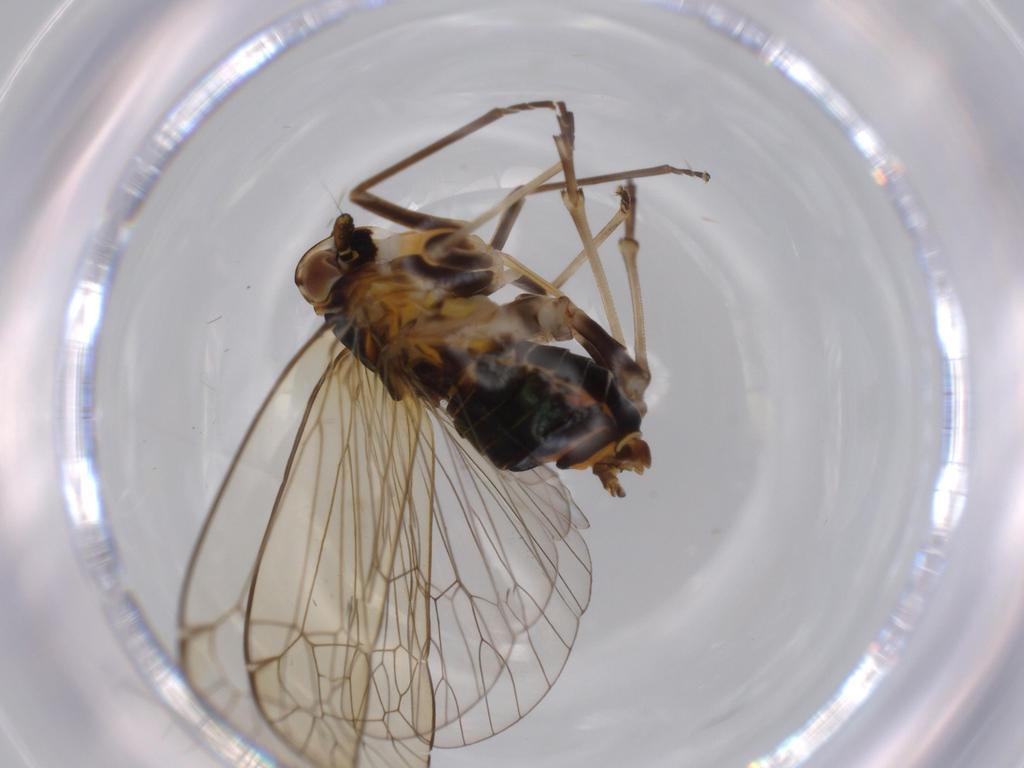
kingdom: Animalia
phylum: Arthropoda
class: Insecta
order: Hemiptera
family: Kinnaridae
